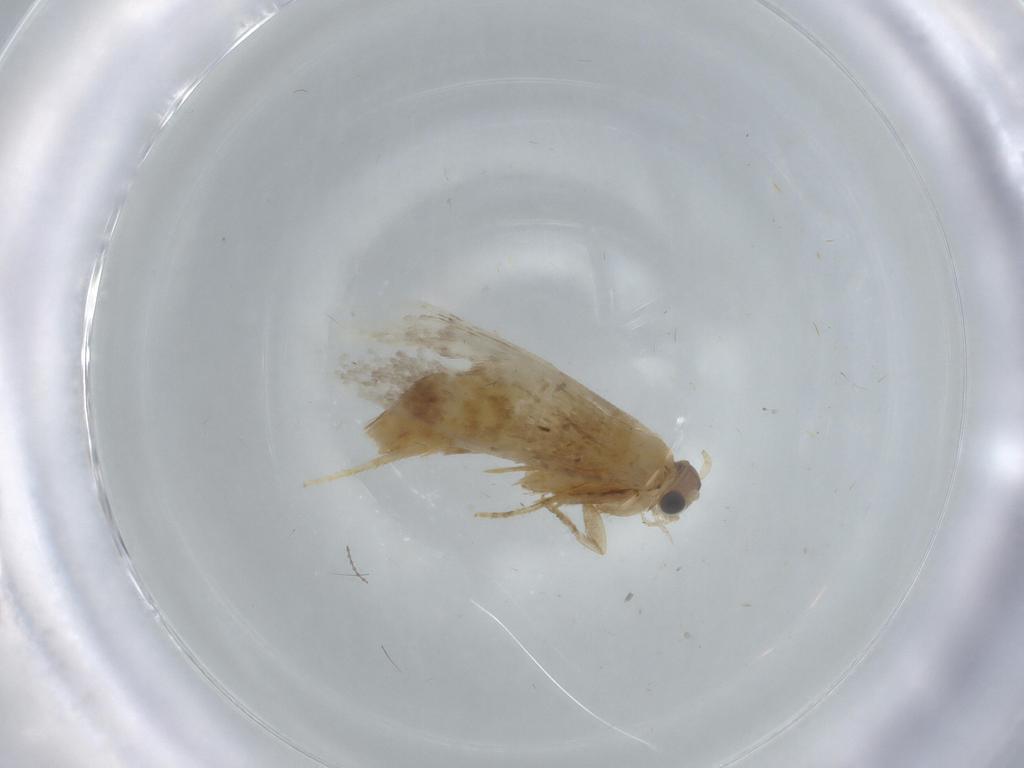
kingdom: Animalia
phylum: Arthropoda
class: Insecta
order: Lepidoptera
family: Tineidae
